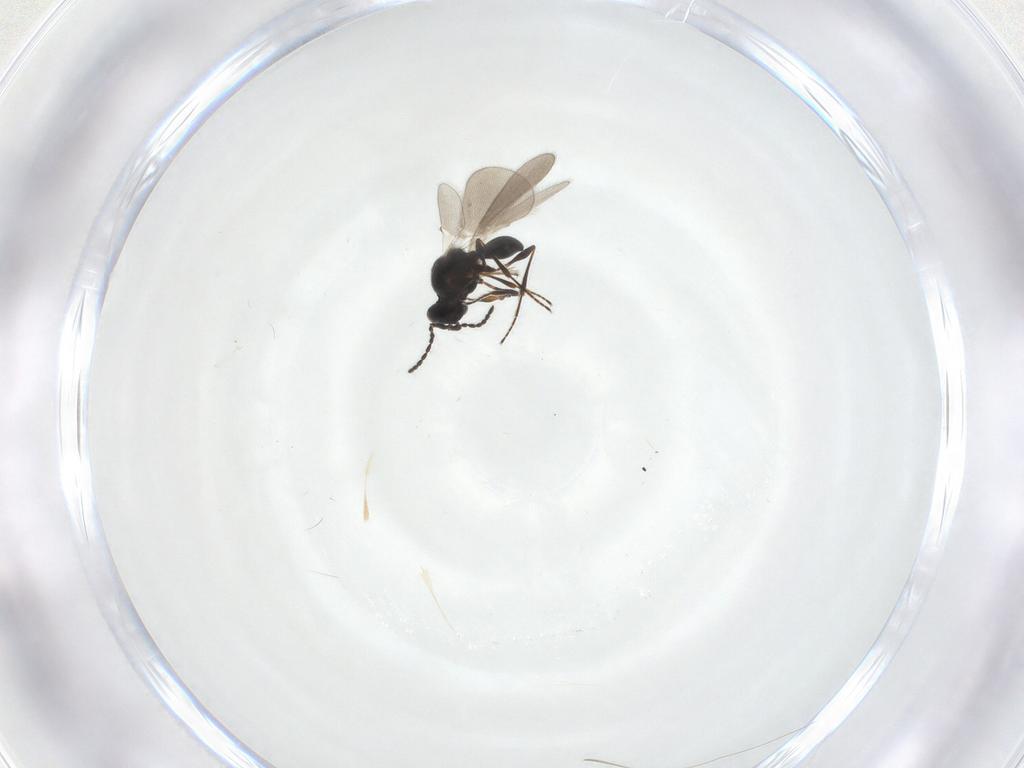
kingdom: Animalia
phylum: Arthropoda
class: Insecta
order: Hymenoptera
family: Platygastridae
